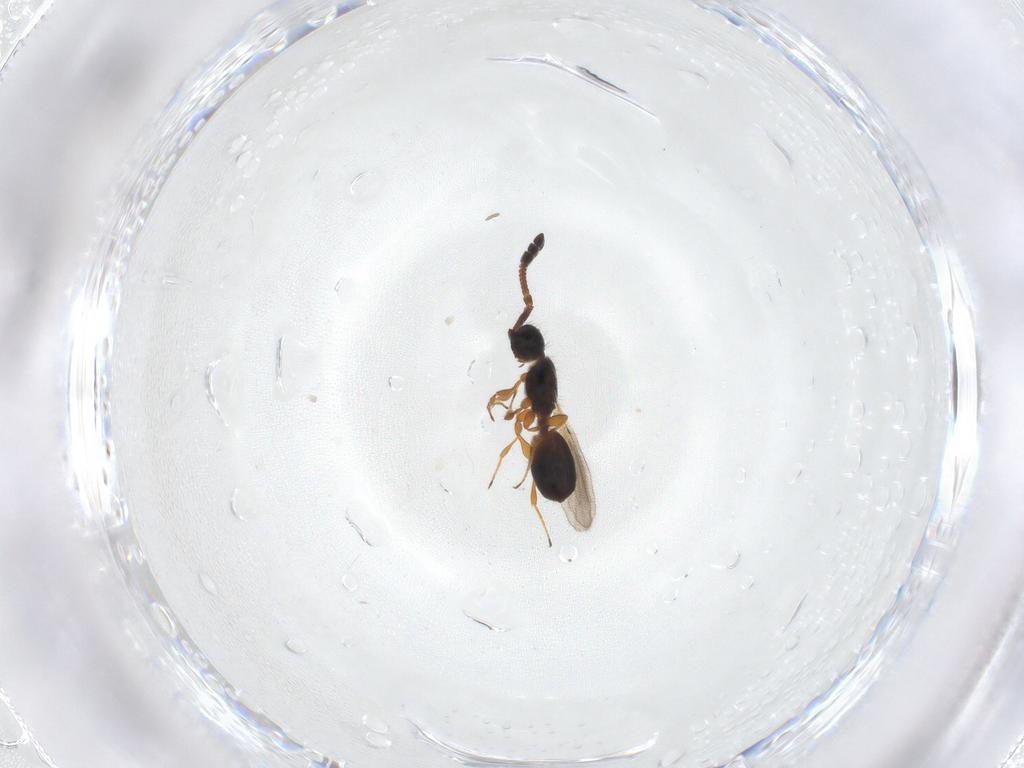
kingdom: Animalia
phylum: Arthropoda
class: Insecta
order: Hymenoptera
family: Diapriidae
